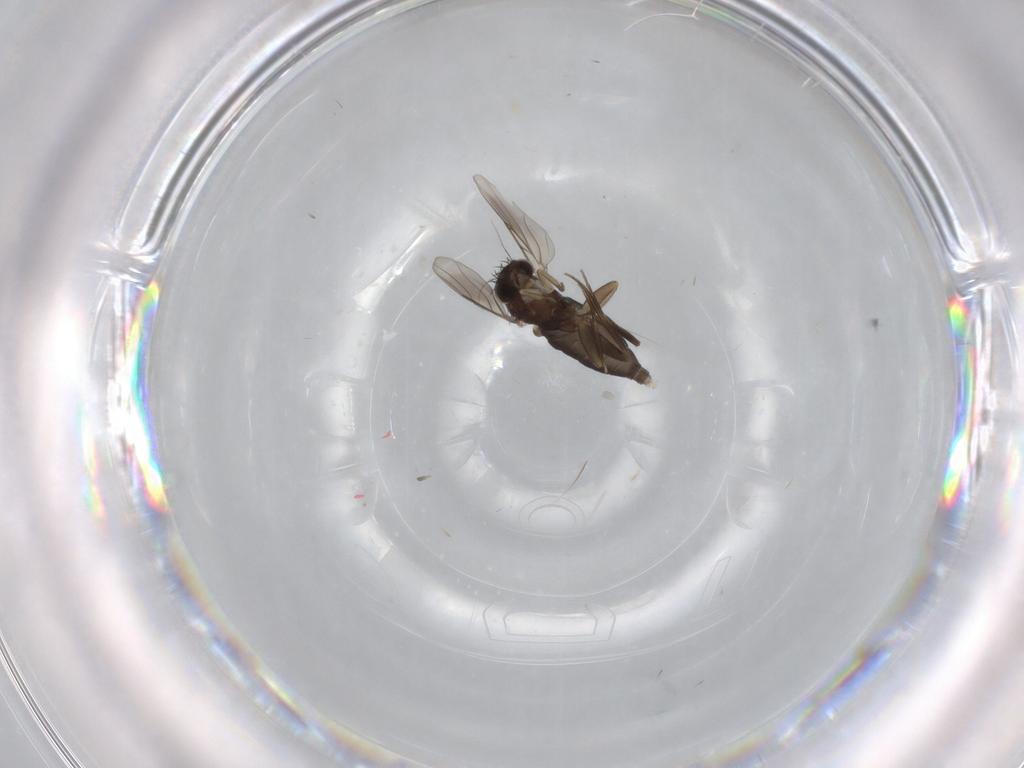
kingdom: Animalia
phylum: Arthropoda
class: Insecta
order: Diptera
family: Phoridae
